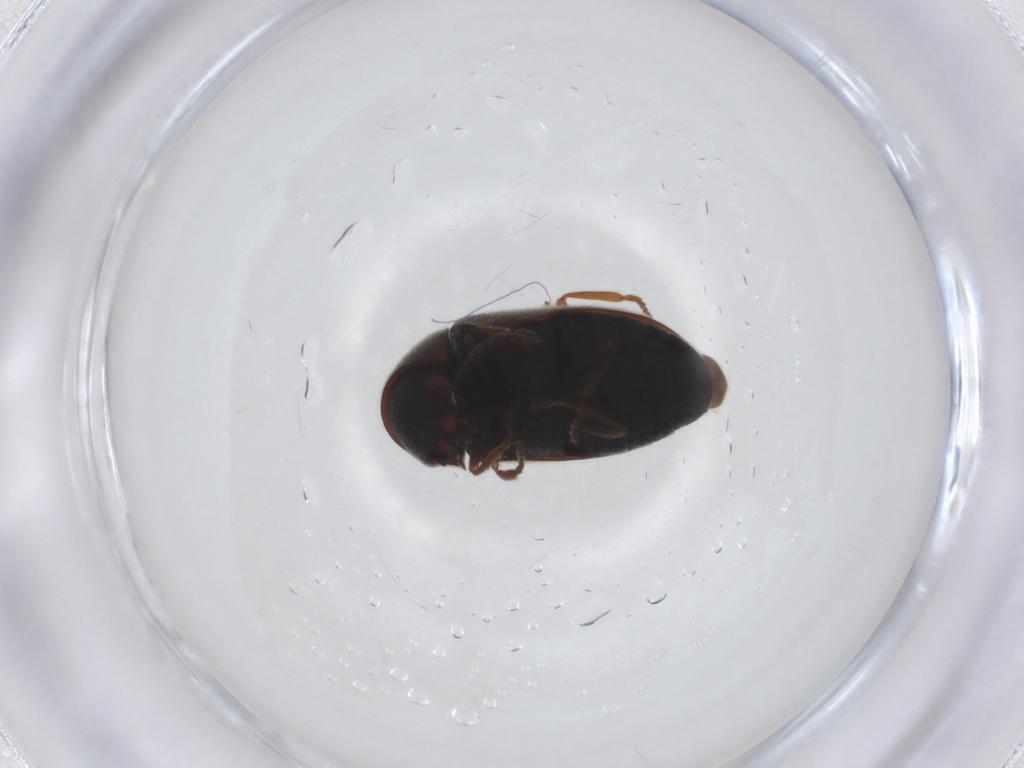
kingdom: Animalia
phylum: Arthropoda
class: Insecta
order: Coleoptera
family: Ptinidae
